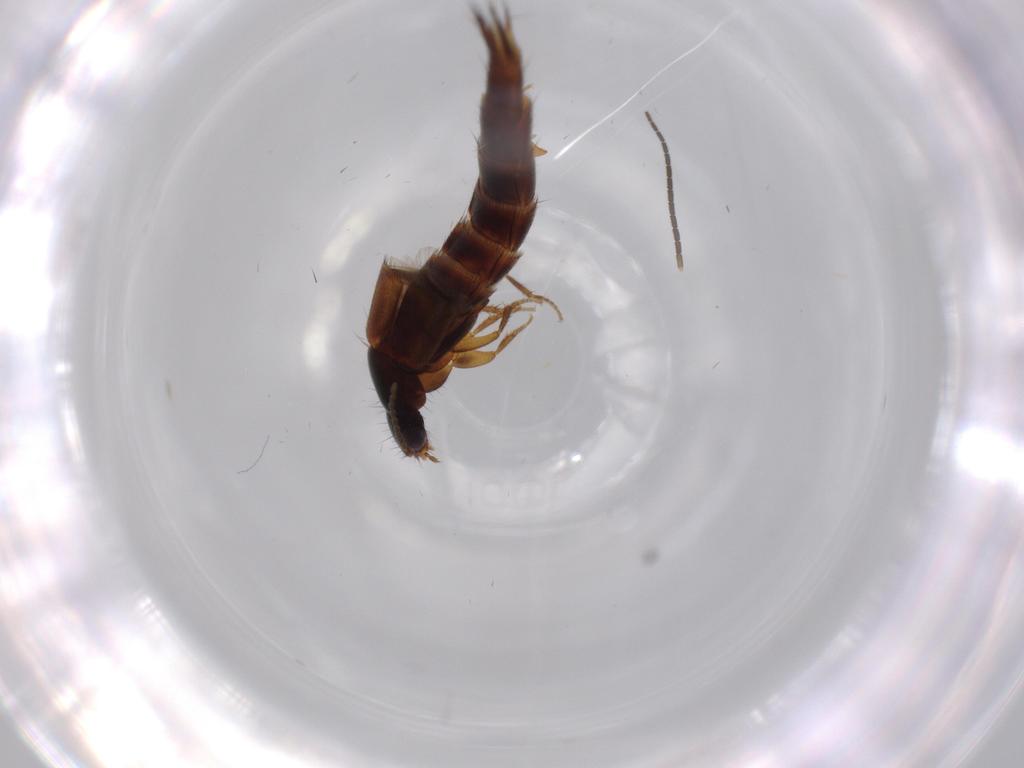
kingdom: Animalia
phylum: Arthropoda
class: Insecta
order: Coleoptera
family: Staphylinidae
